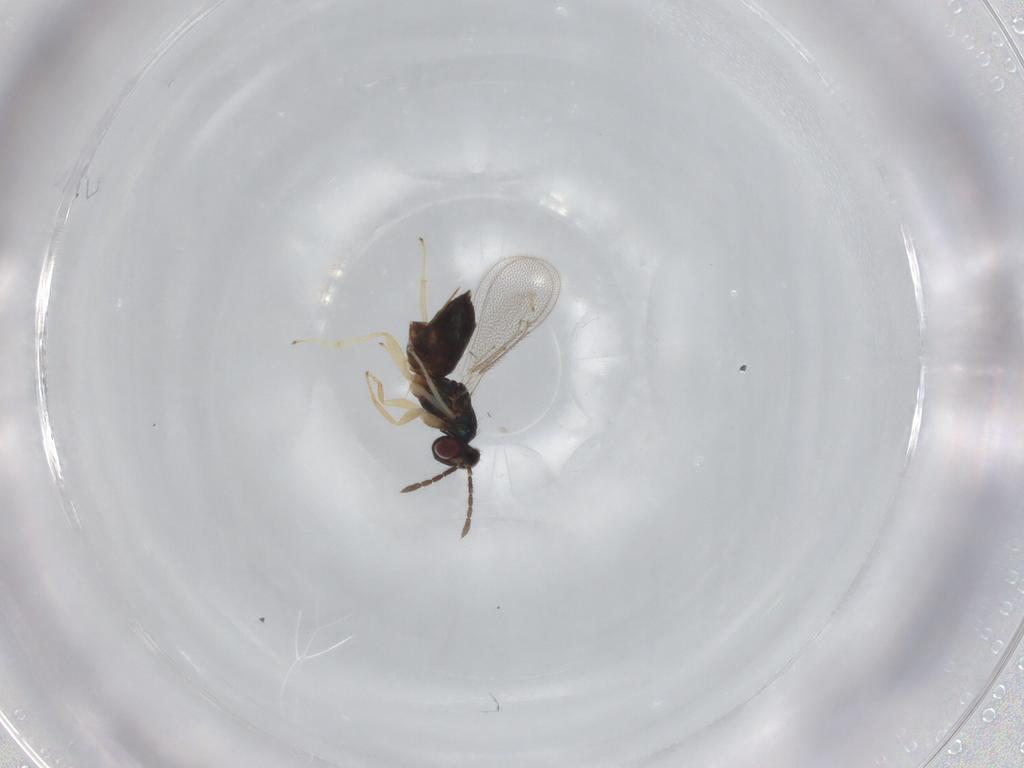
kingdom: Animalia
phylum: Arthropoda
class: Insecta
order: Hymenoptera
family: Eulophidae
